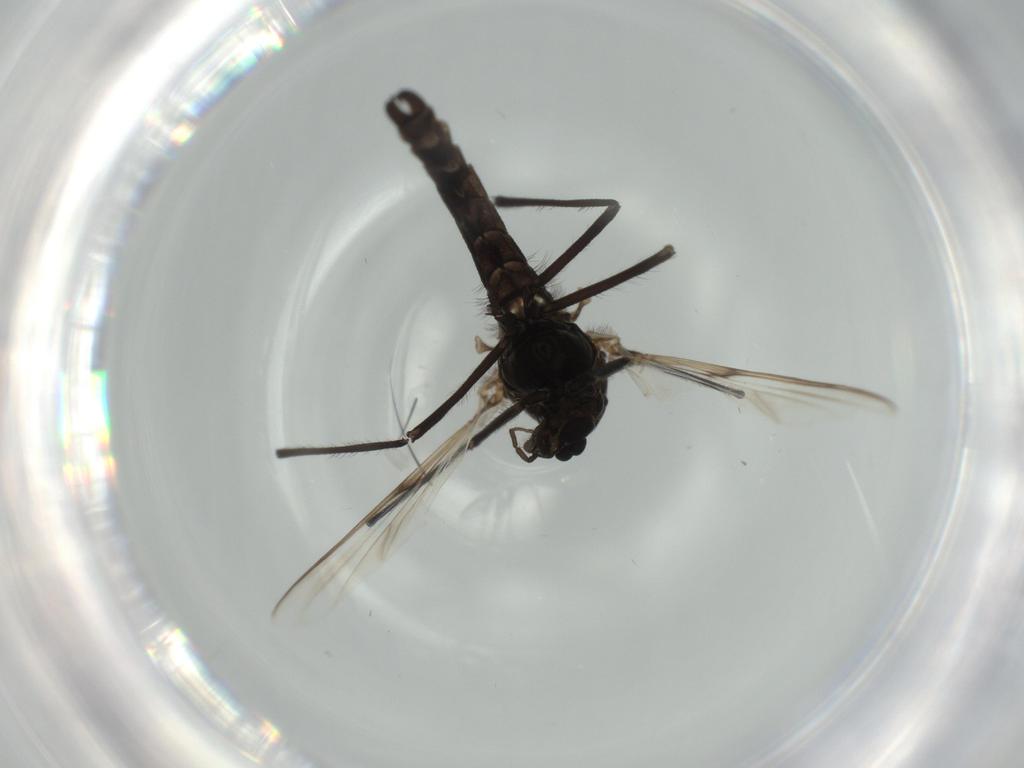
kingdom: Animalia
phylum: Arthropoda
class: Insecta
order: Diptera
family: Chironomidae
